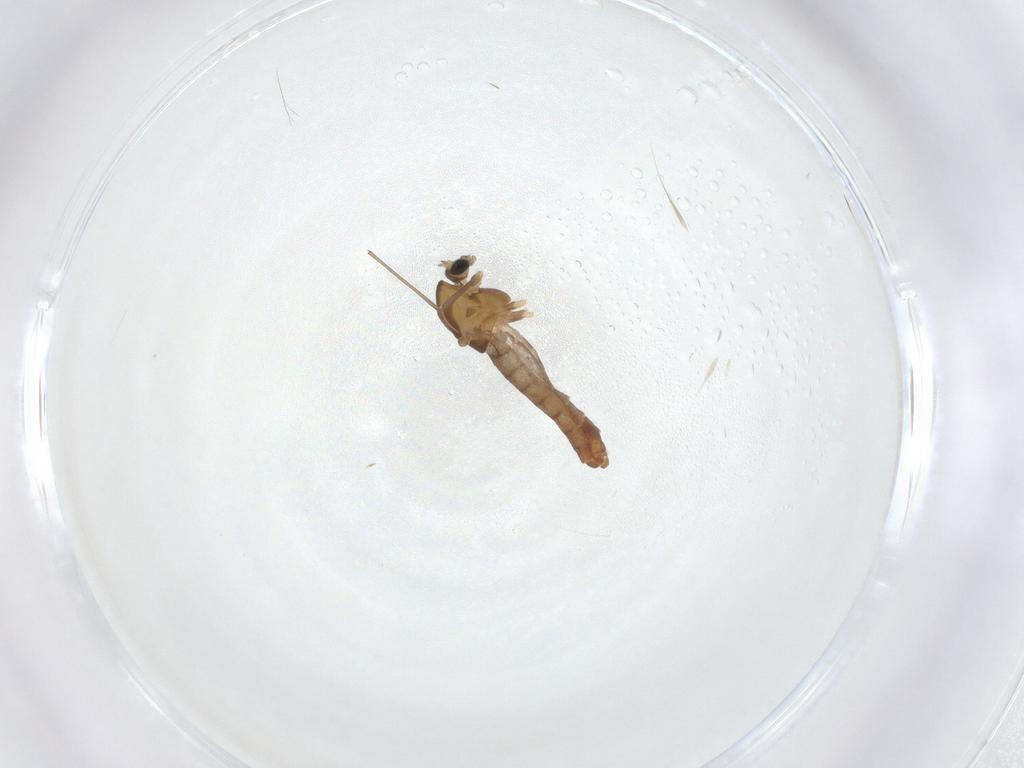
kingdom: Animalia
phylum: Arthropoda
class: Insecta
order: Diptera
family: Chironomidae
